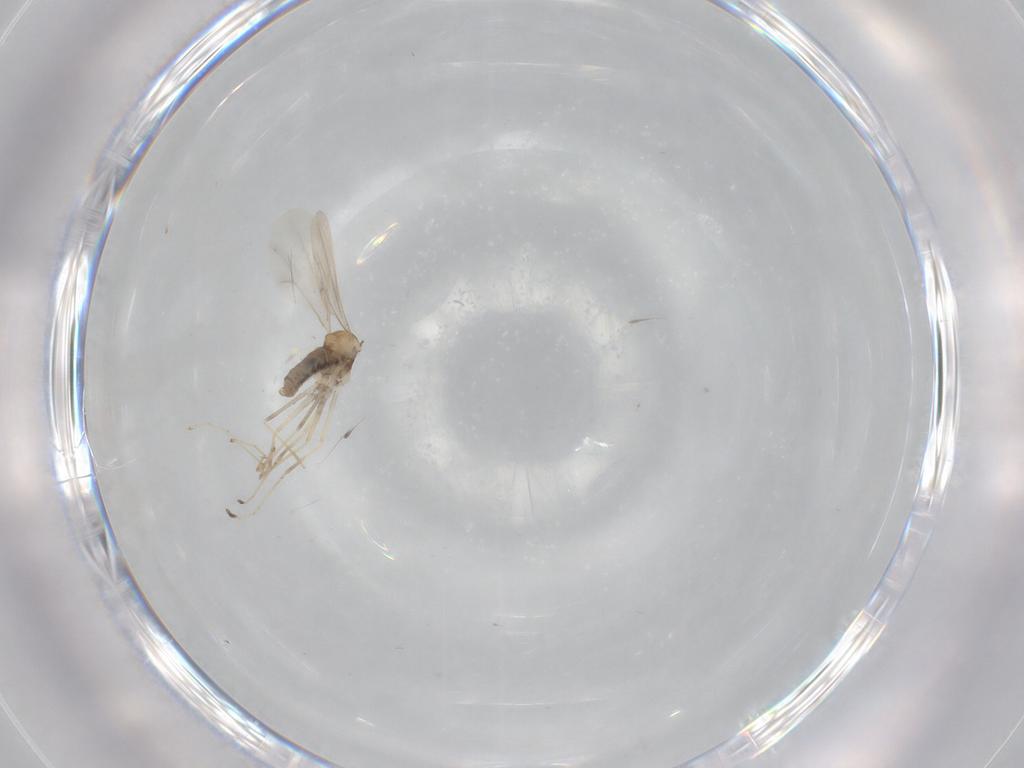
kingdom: Animalia
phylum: Arthropoda
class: Insecta
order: Diptera
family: Cecidomyiidae
